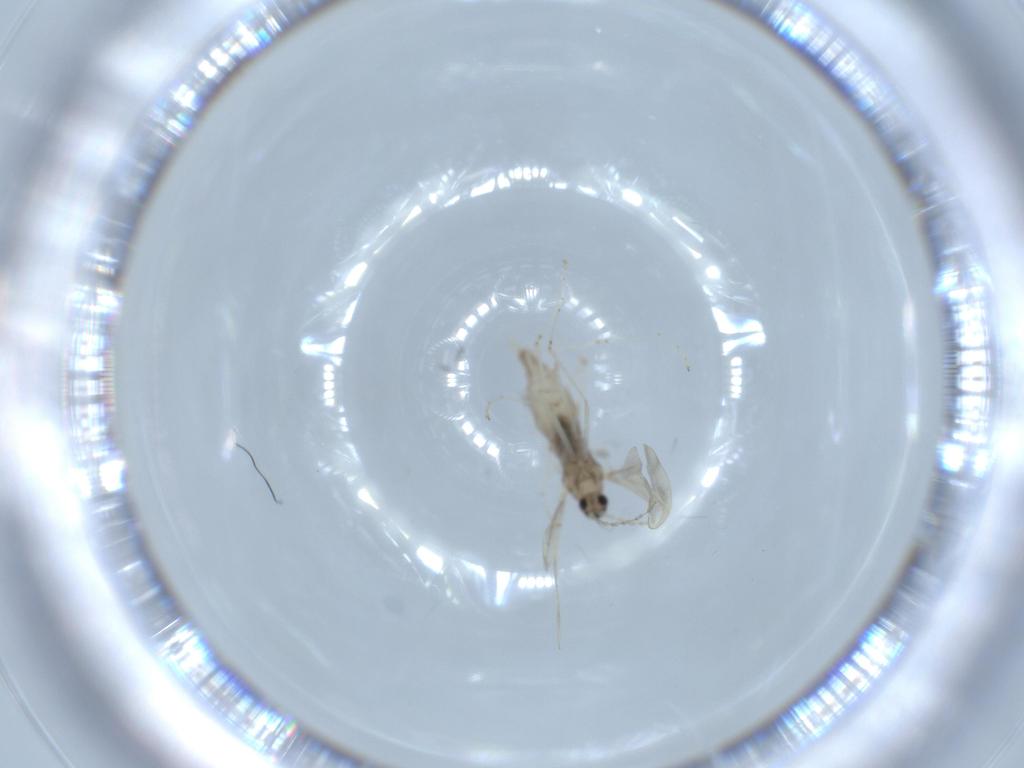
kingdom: Animalia
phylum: Arthropoda
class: Insecta
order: Diptera
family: Cecidomyiidae
